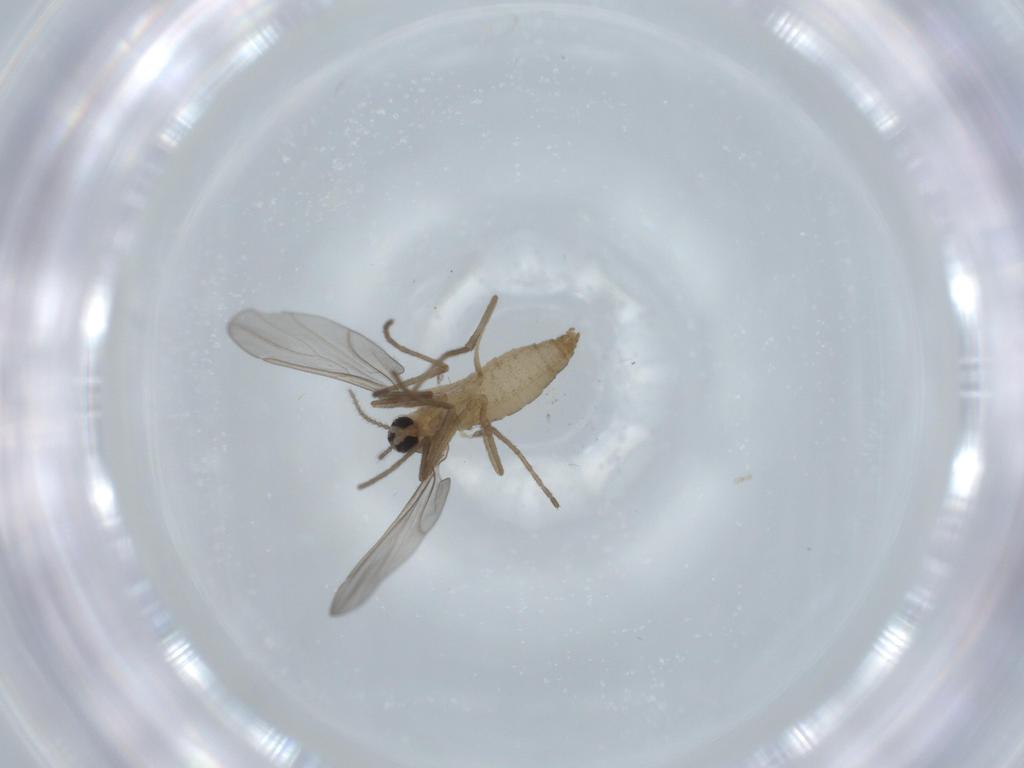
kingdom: Animalia
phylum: Arthropoda
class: Insecta
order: Diptera
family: Cecidomyiidae
